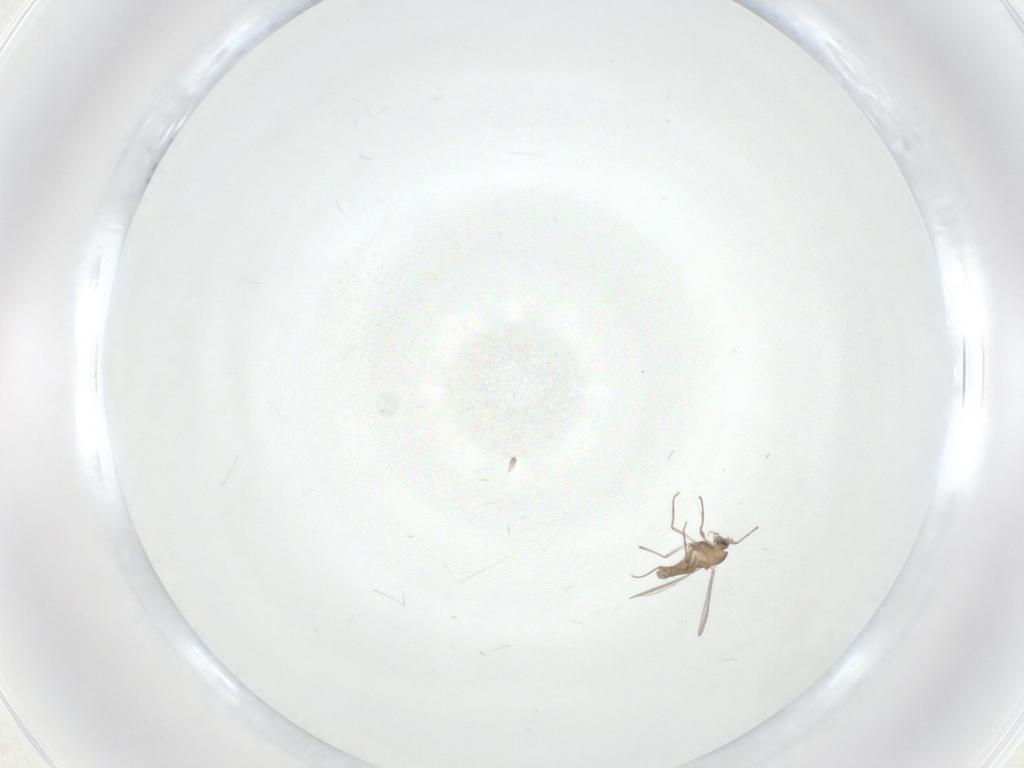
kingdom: Animalia
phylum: Arthropoda
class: Insecta
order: Diptera
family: Chironomidae
